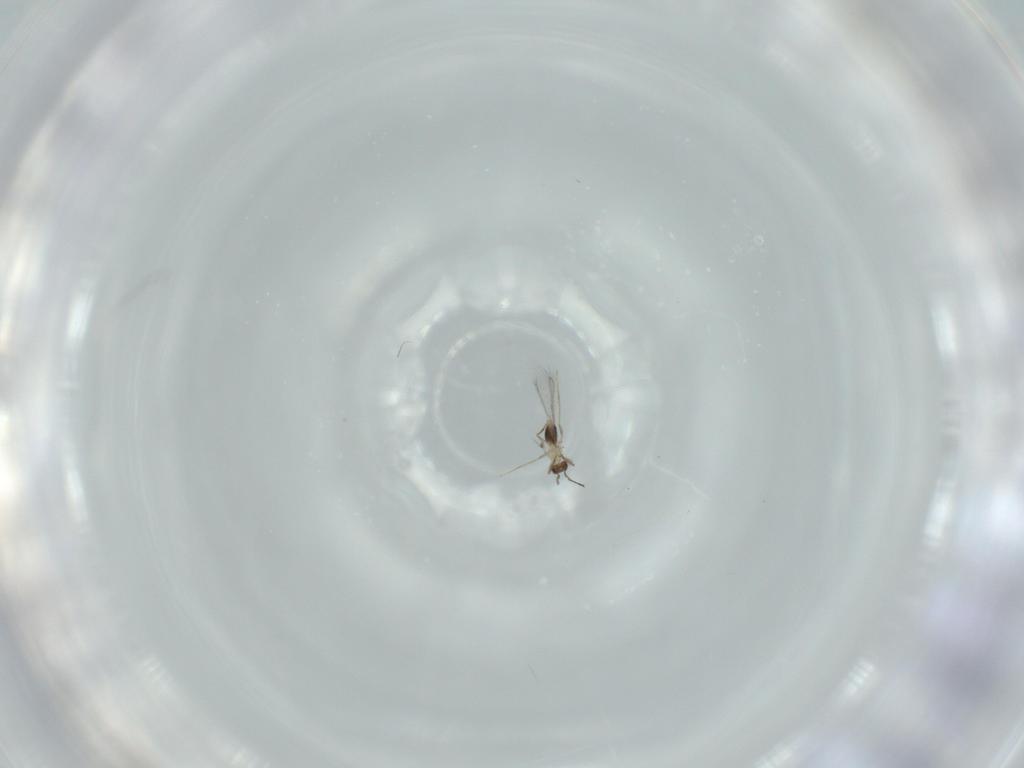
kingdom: Animalia
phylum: Arthropoda
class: Insecta
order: Hymenoptera
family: Mymaridae
